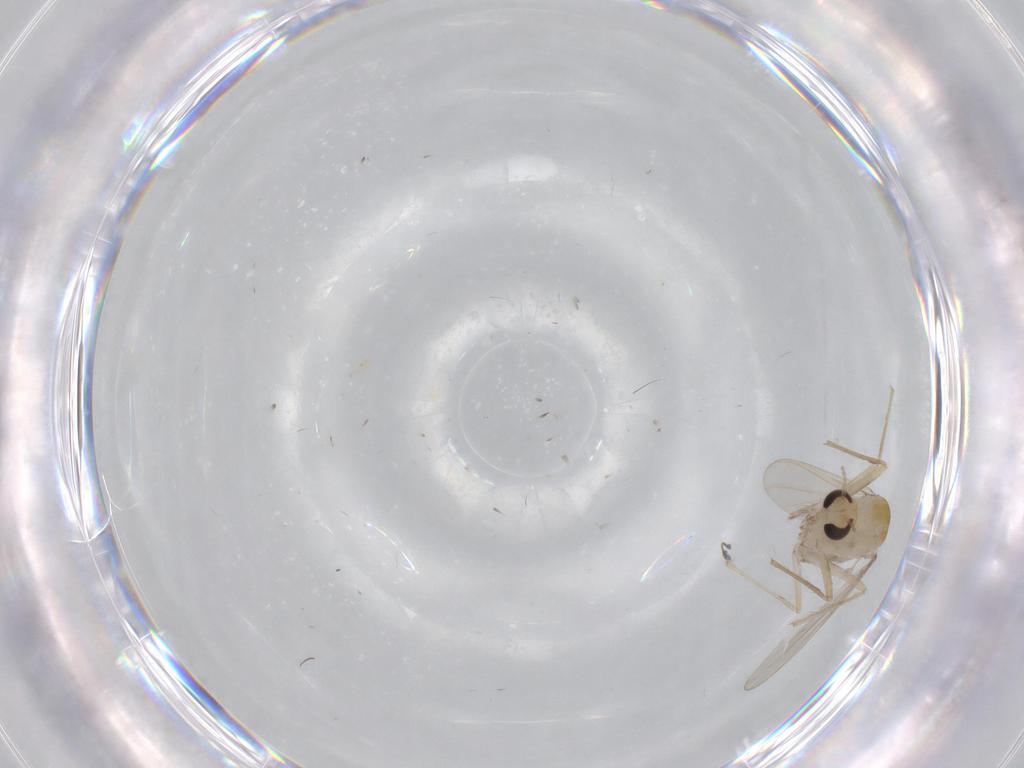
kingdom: Animalia
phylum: Arthropoda
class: Insecta
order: Diptera
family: Chironomidae
